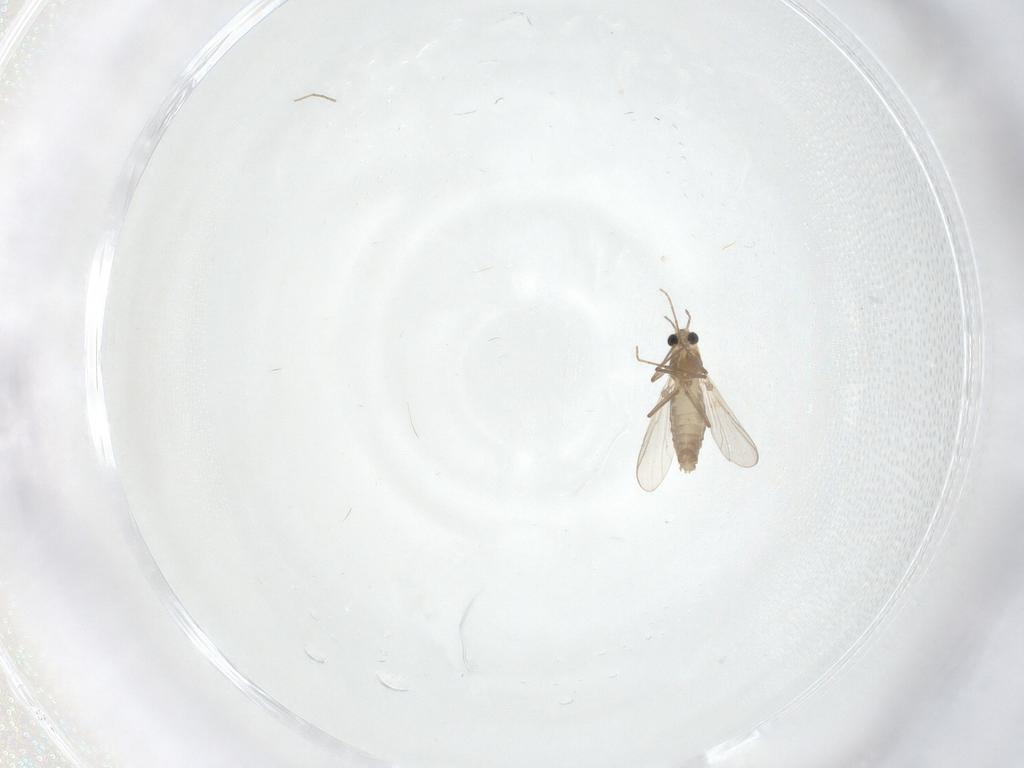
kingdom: Animalia
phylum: Arthropoda
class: Insecta
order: Diptera
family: Chironomidae
